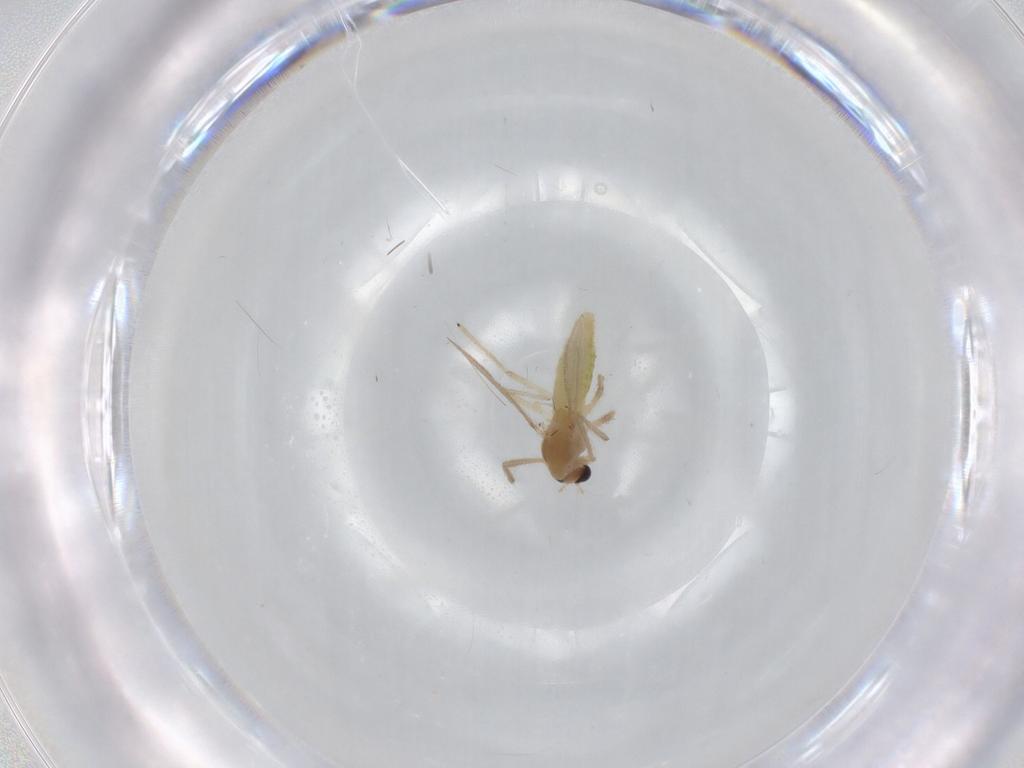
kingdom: Animalia
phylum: Arthropoda
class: Insecta
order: Diptera
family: Chironomidae
